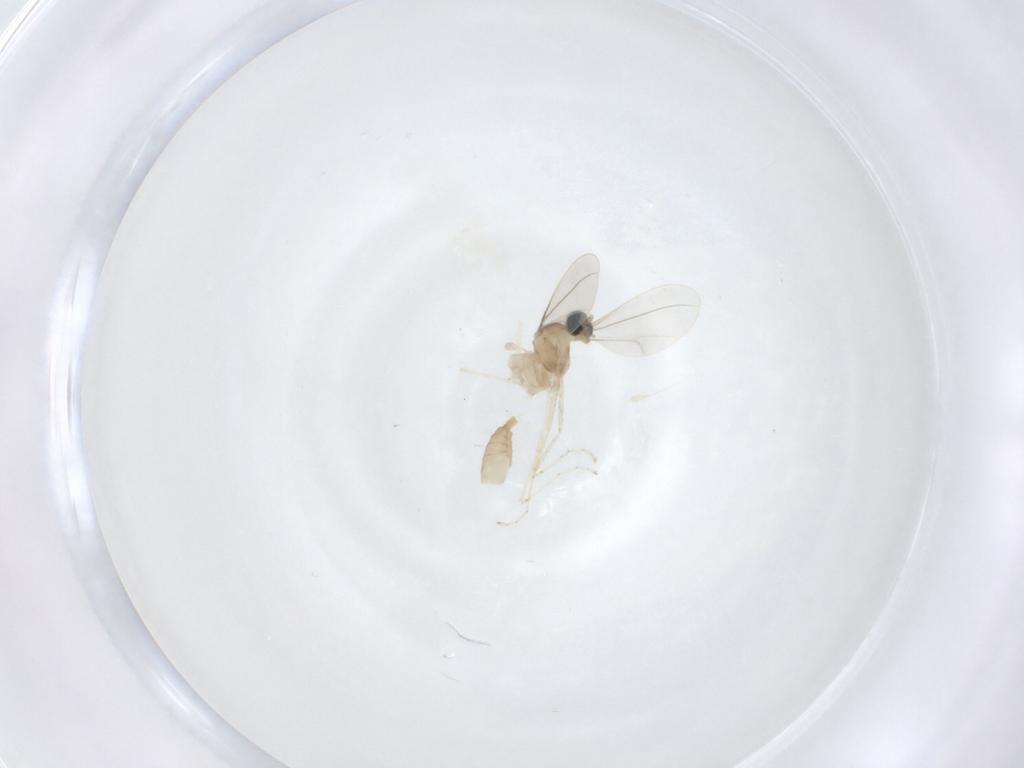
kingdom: Animalia
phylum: Arthropoda
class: Insecta
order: Diptera
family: Cecidomyiidae
